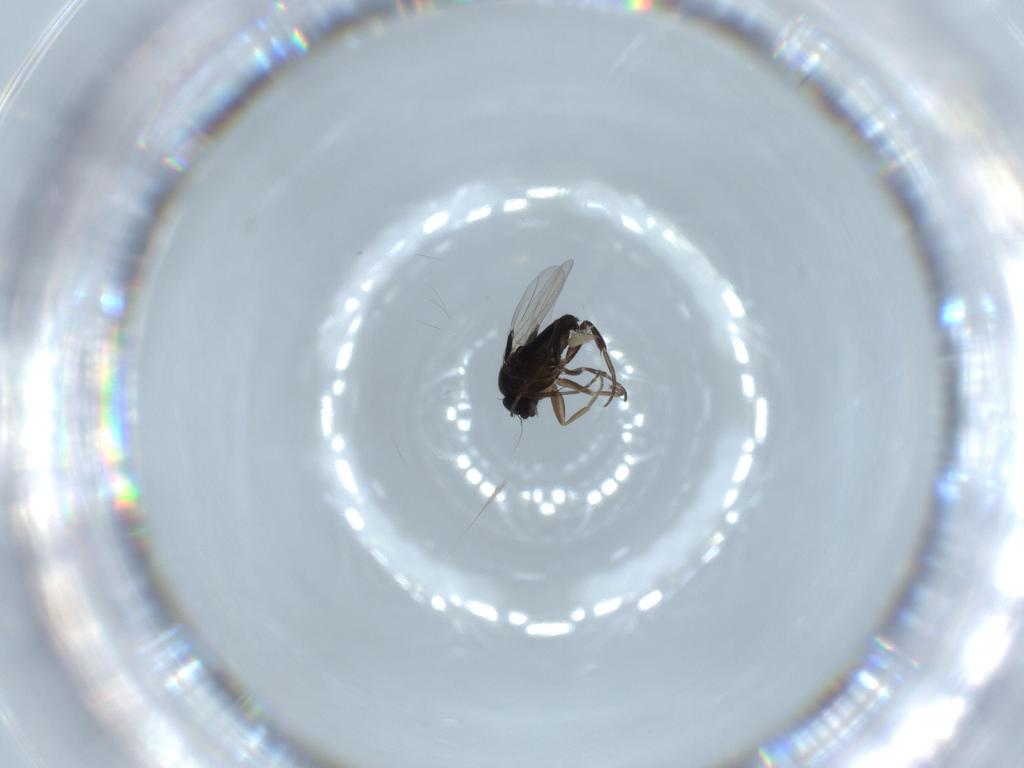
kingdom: Animalia
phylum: Arthropoda
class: Insecta
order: Diptera
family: Phoridae
